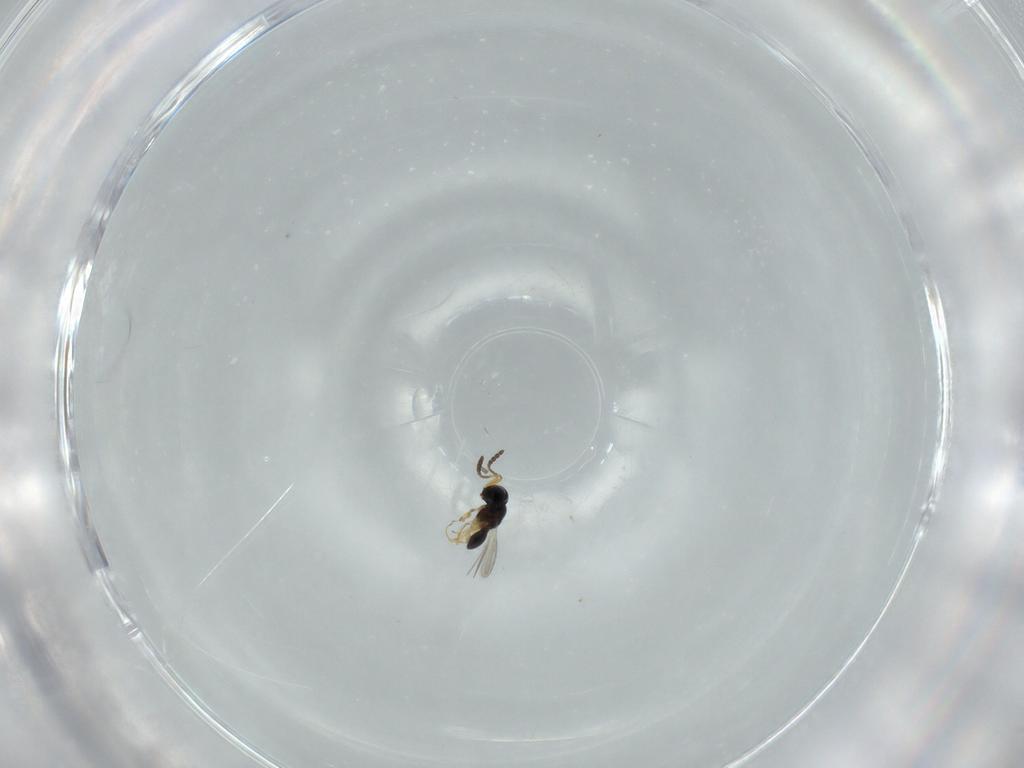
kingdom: Animalia
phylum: Arthropoda
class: Insecta
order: Hymenoptera
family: Scelionidae
